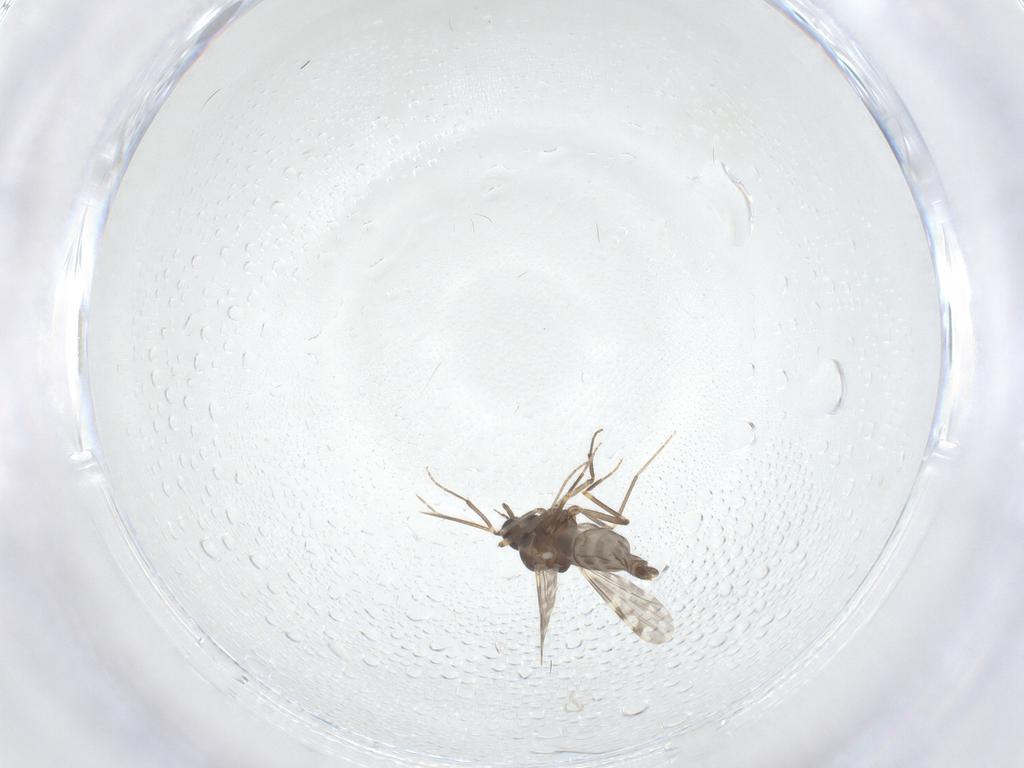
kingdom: Animalia
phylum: Arthropoda
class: Insecta
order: Diptera
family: Ceratopogonidae
